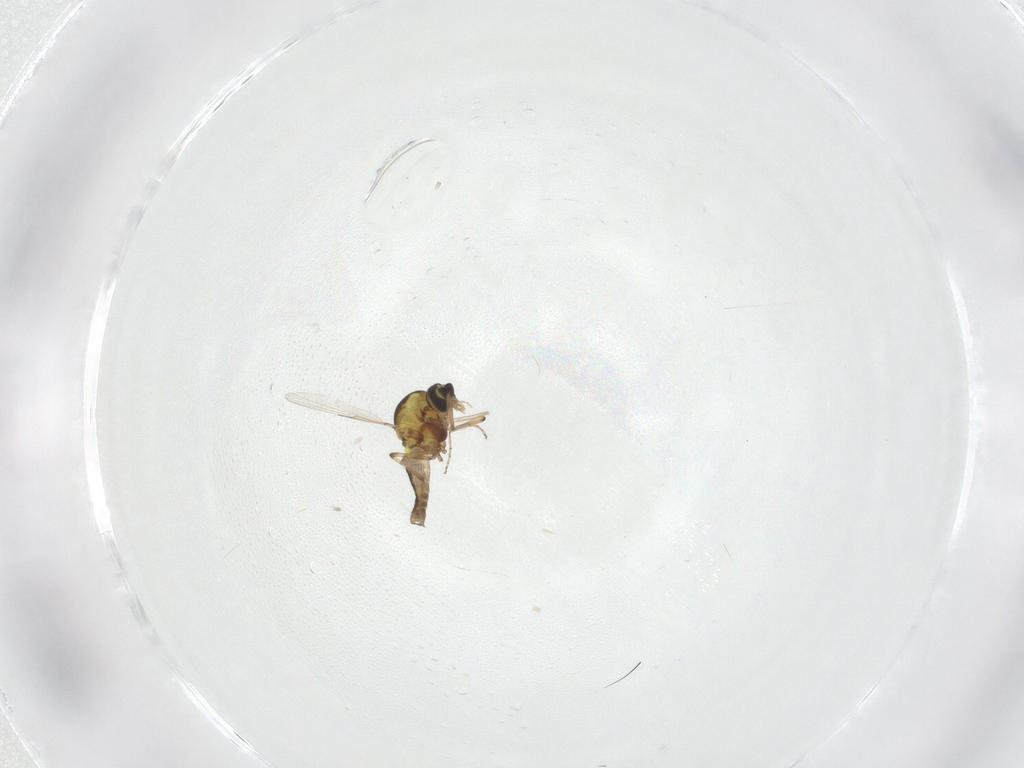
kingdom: Animalia
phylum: Arthropoda
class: Insecta
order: Diptera
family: Ceratopogonidae
